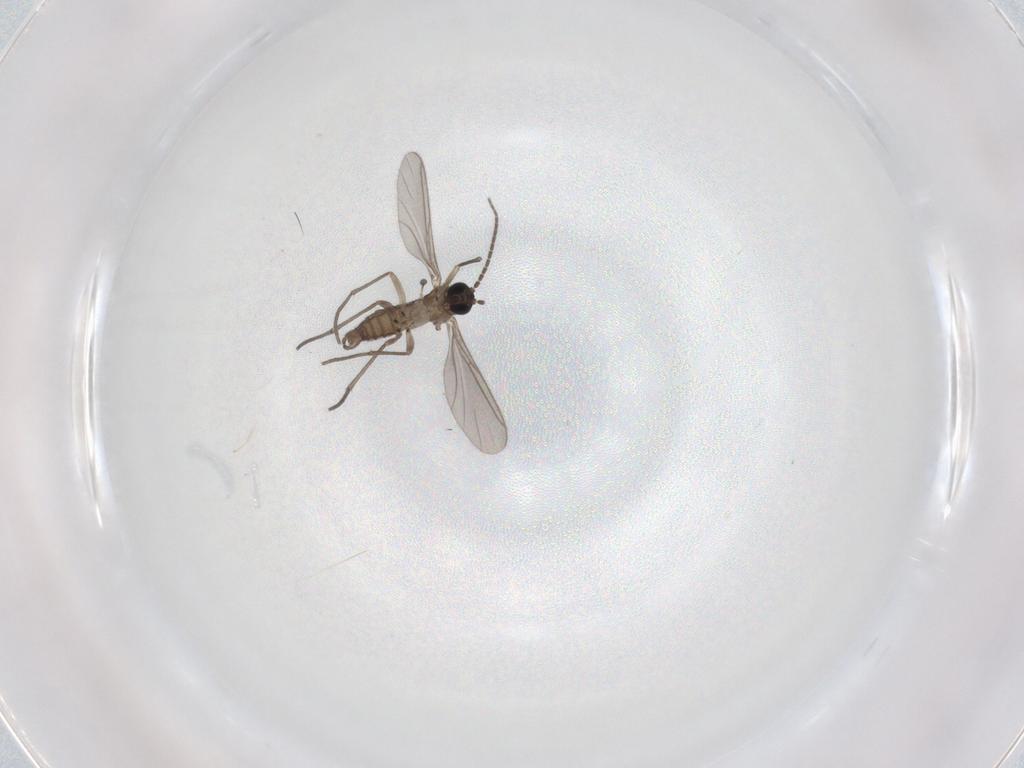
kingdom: Animalia
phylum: Arthropoda
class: Insecta
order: Diptera
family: Sciaridae
